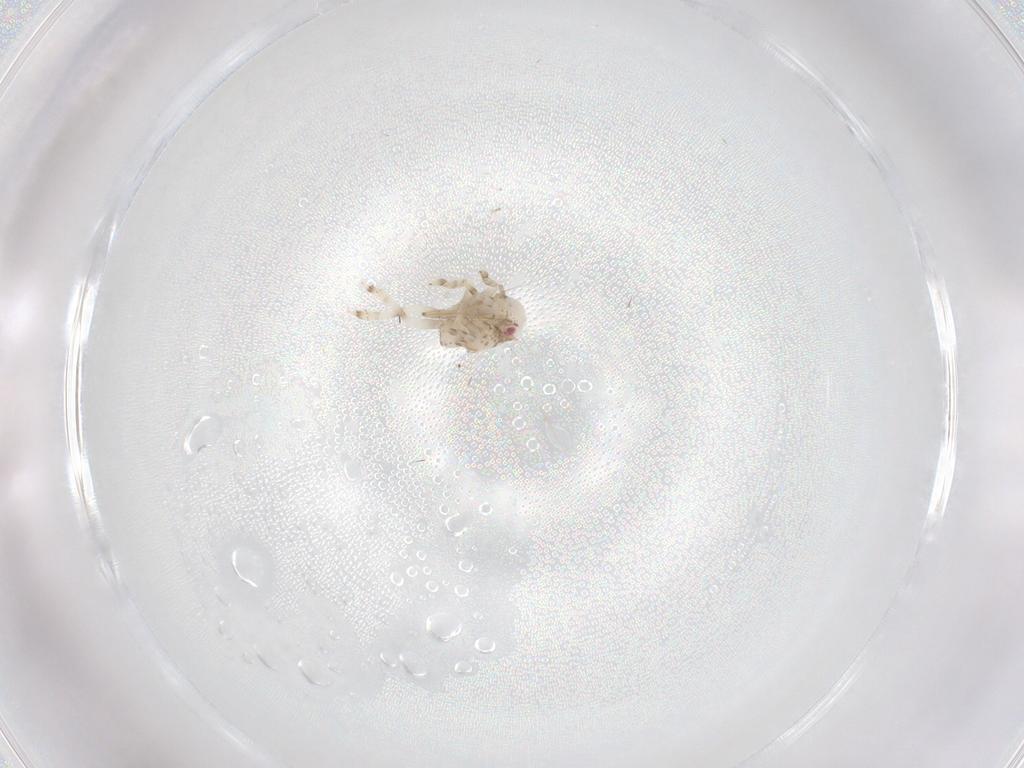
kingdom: Animalia
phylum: Arthropoda
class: Insecta
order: Hemiptera
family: Acanaloniidae
